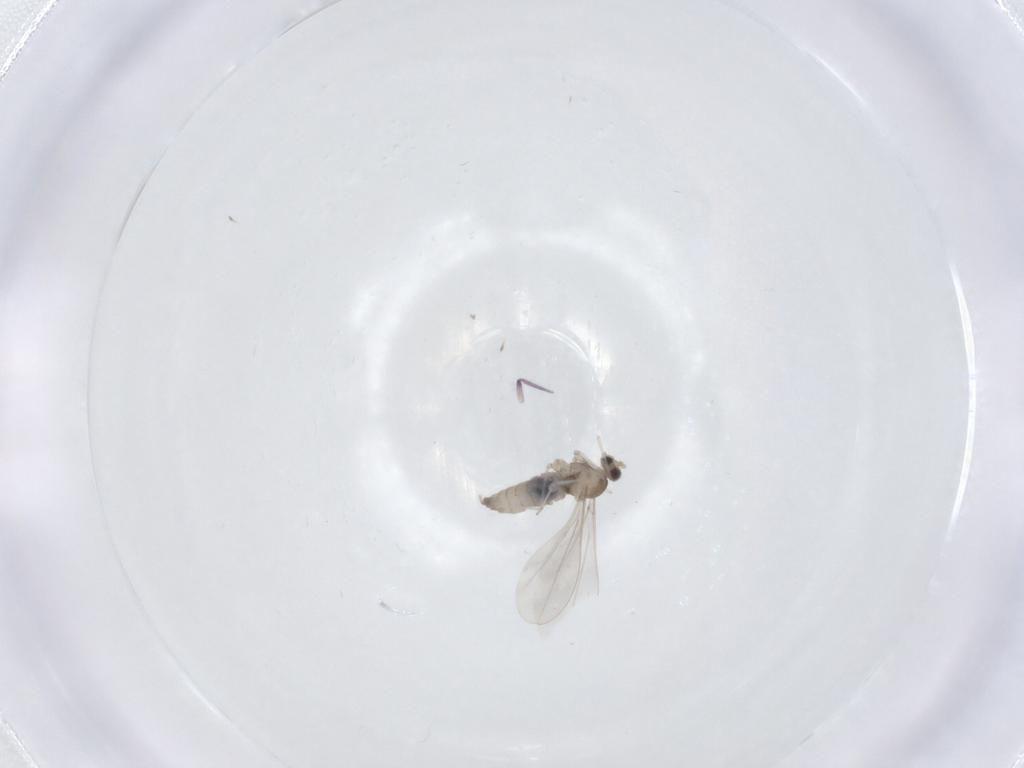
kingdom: Animalia
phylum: Arthropoda
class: Insecta
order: Diptera
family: Cecidomyiidae
